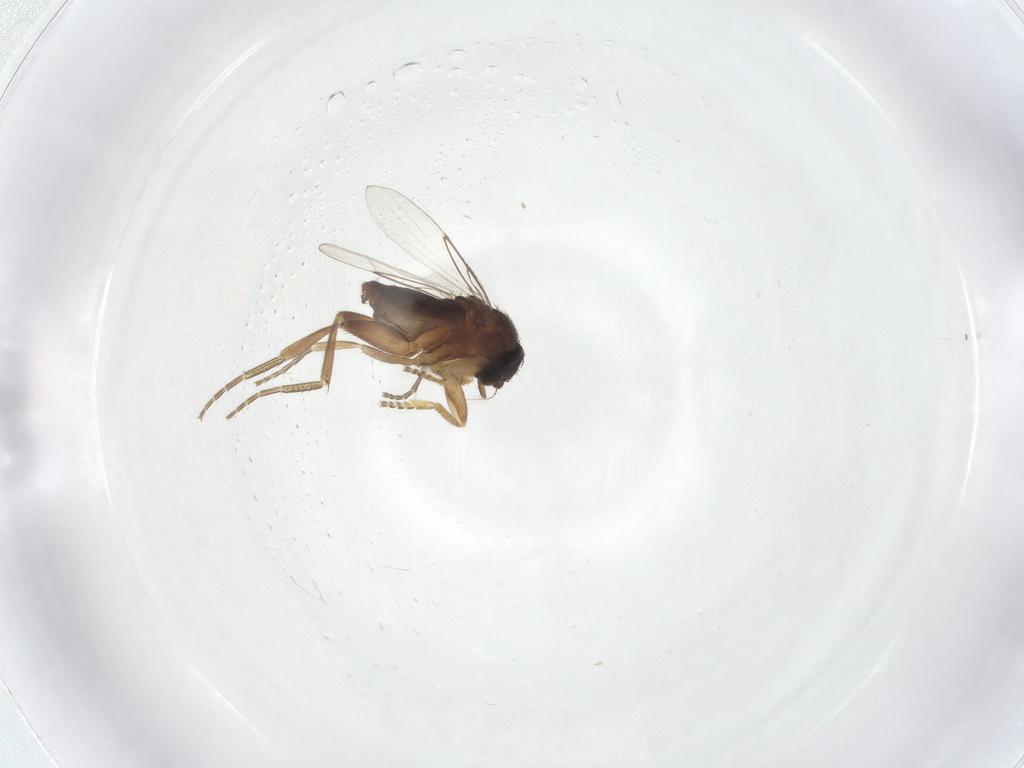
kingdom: Animalia
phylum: Arthropoda
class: Insecta
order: Diptera
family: Phoridae
